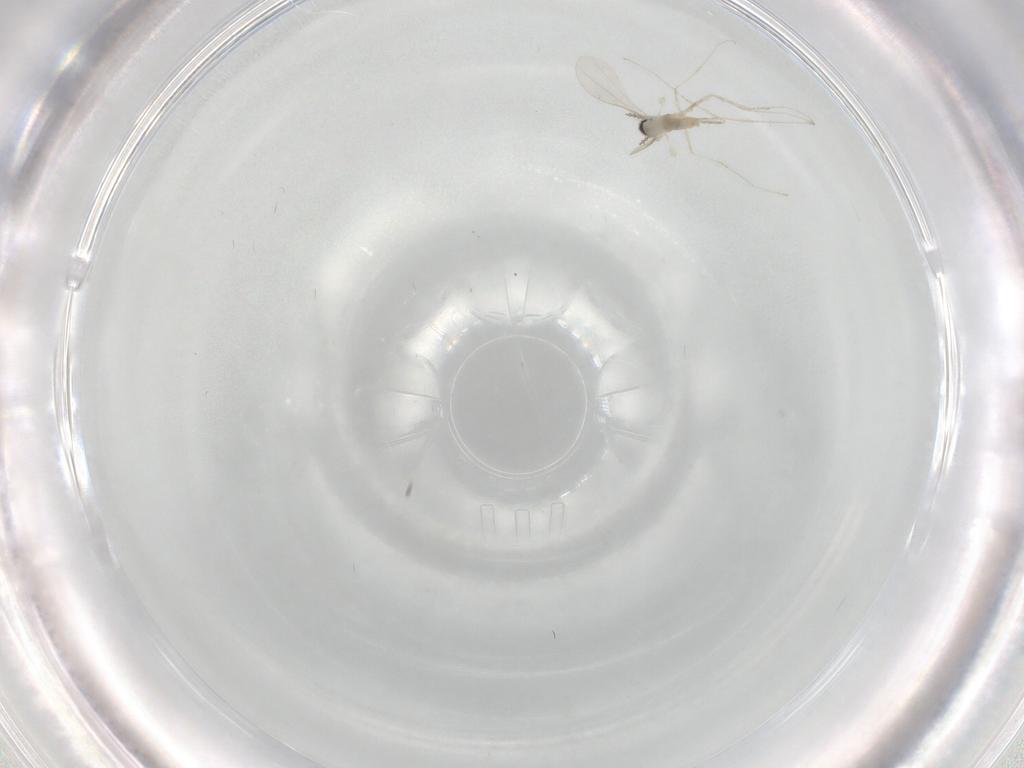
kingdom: Animalia
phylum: Arthropoda
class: Insecta
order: Diptera
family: Cecidomyiidae
